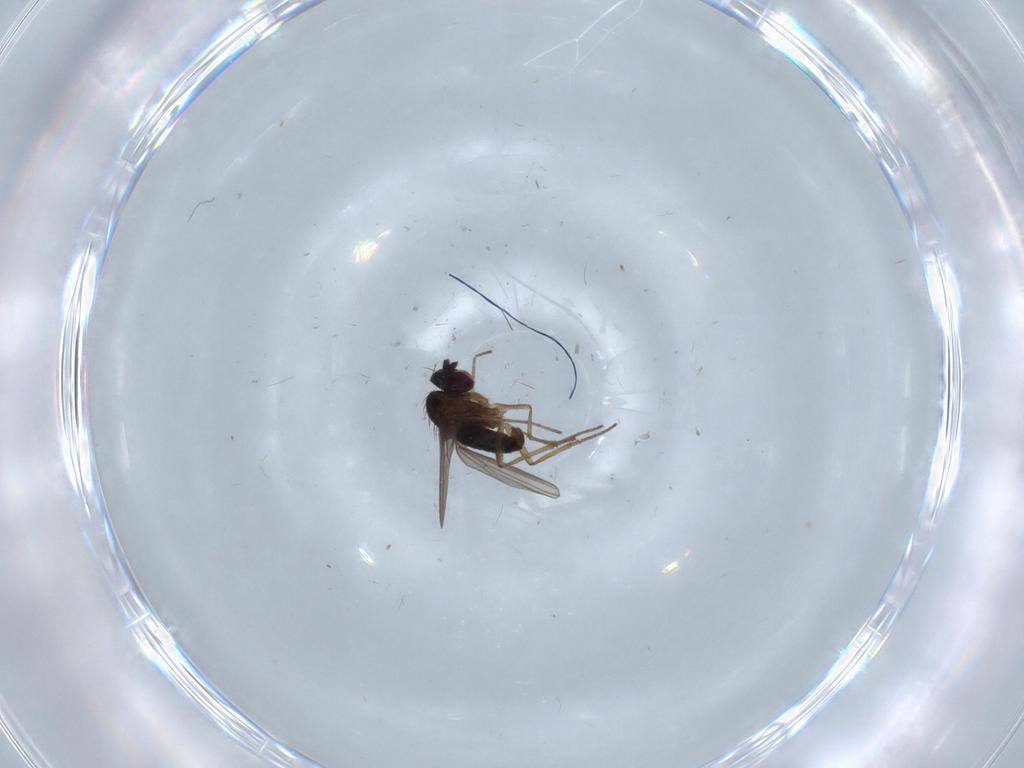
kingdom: Animalia
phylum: Arthropoda
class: Insecta
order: Diptera
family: Dolichopodidae
